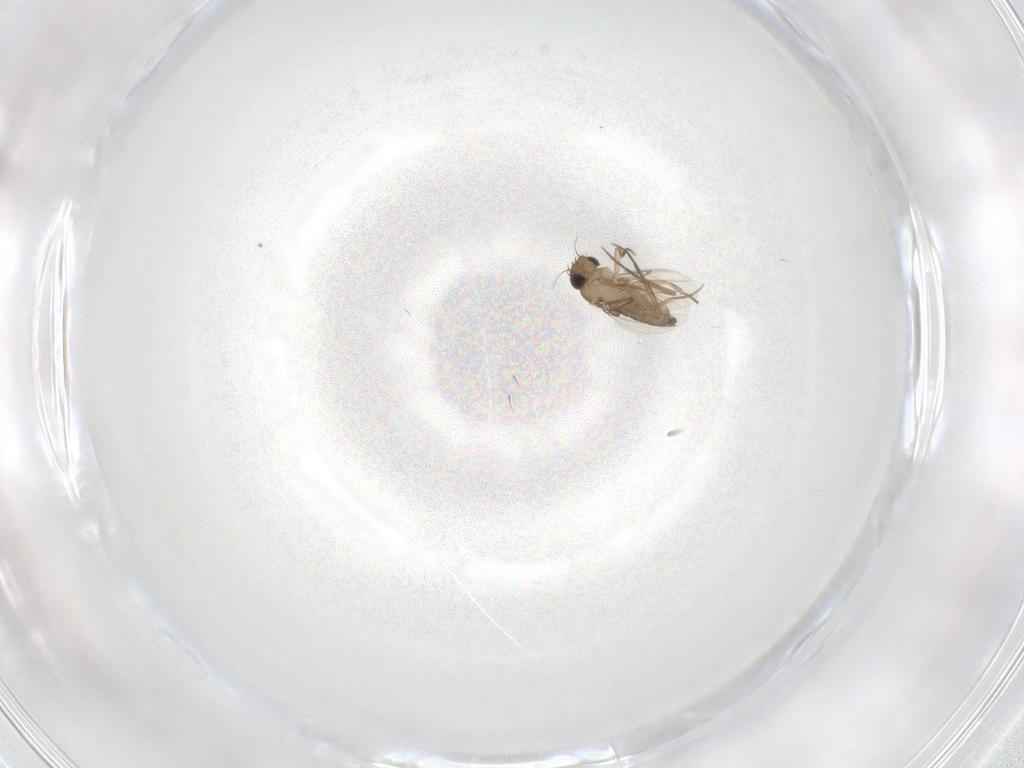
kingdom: Animalia
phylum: Arthropoda
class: Insecta
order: Diptera
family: Phoridae
